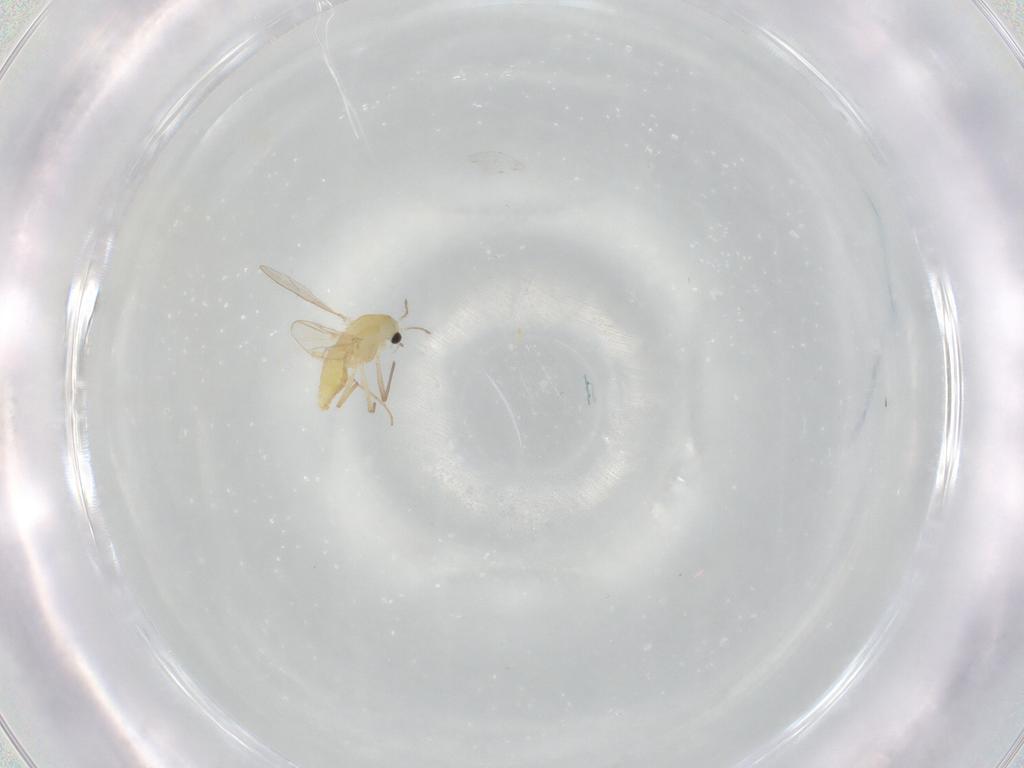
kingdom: Animalia
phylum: Arthropoda
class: Insecta
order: Diptera
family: Chironomidae
